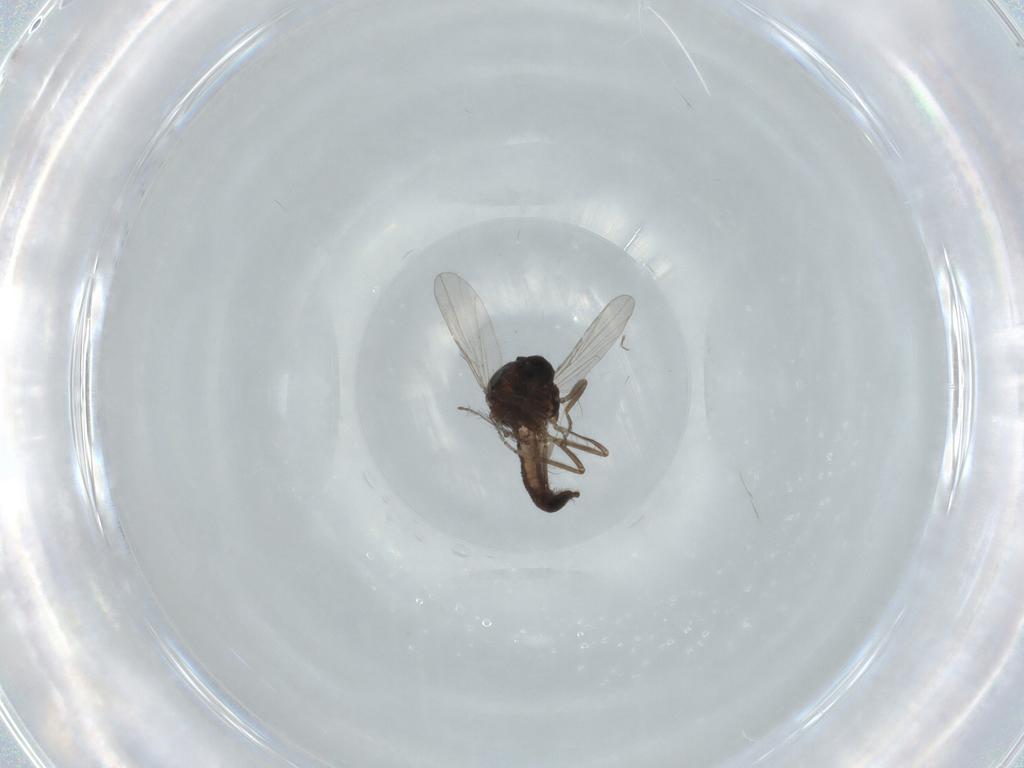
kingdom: Animalia
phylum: Arthropoda
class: Insecta
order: Diptera
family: Ceratopogonidae
